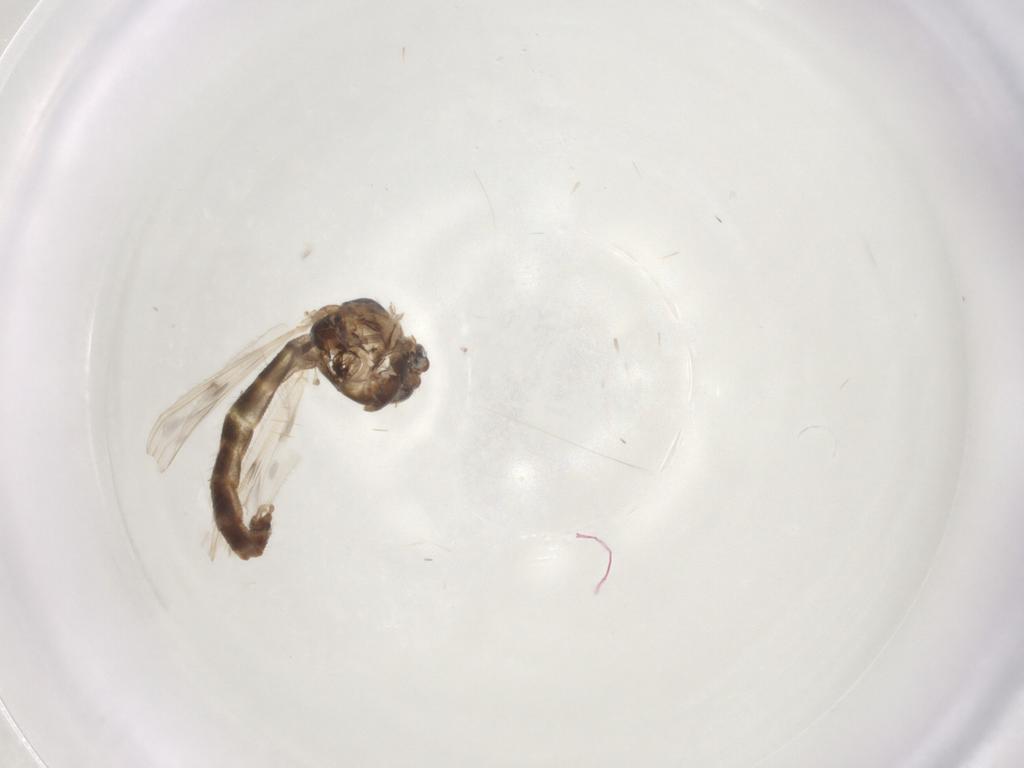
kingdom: Animalia
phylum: Arthropoda
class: Insecta
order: Diptera
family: Chironomidae
